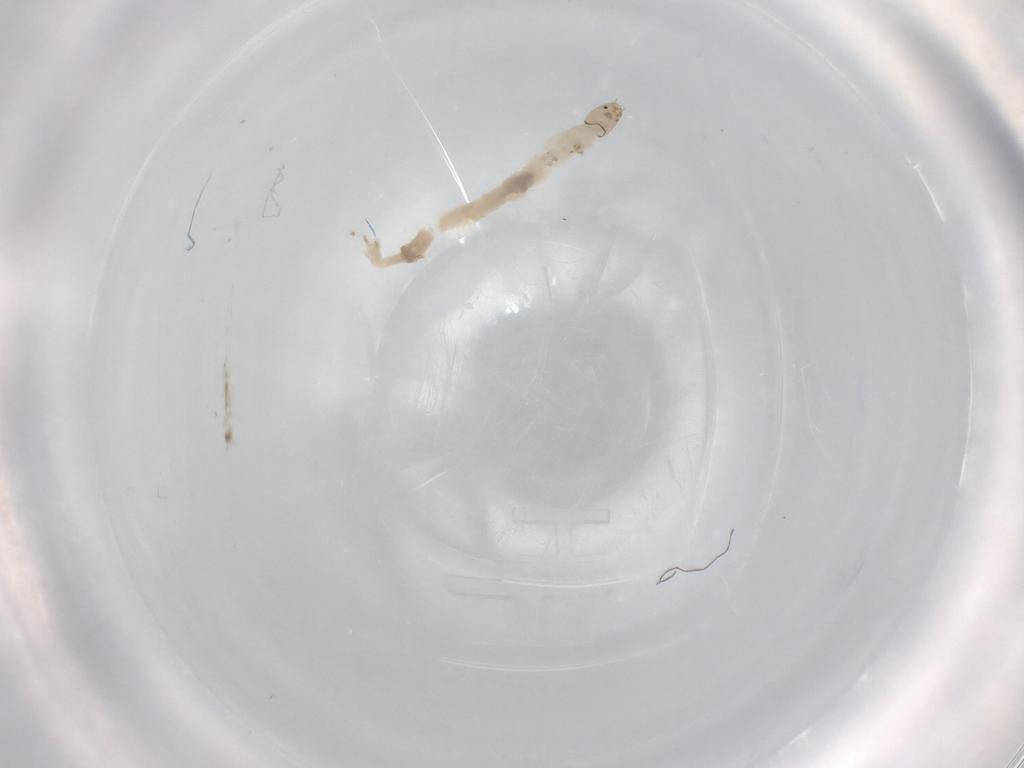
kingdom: Animalia
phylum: Arthropoda
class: Insecta
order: Diptera
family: Chironomidae
